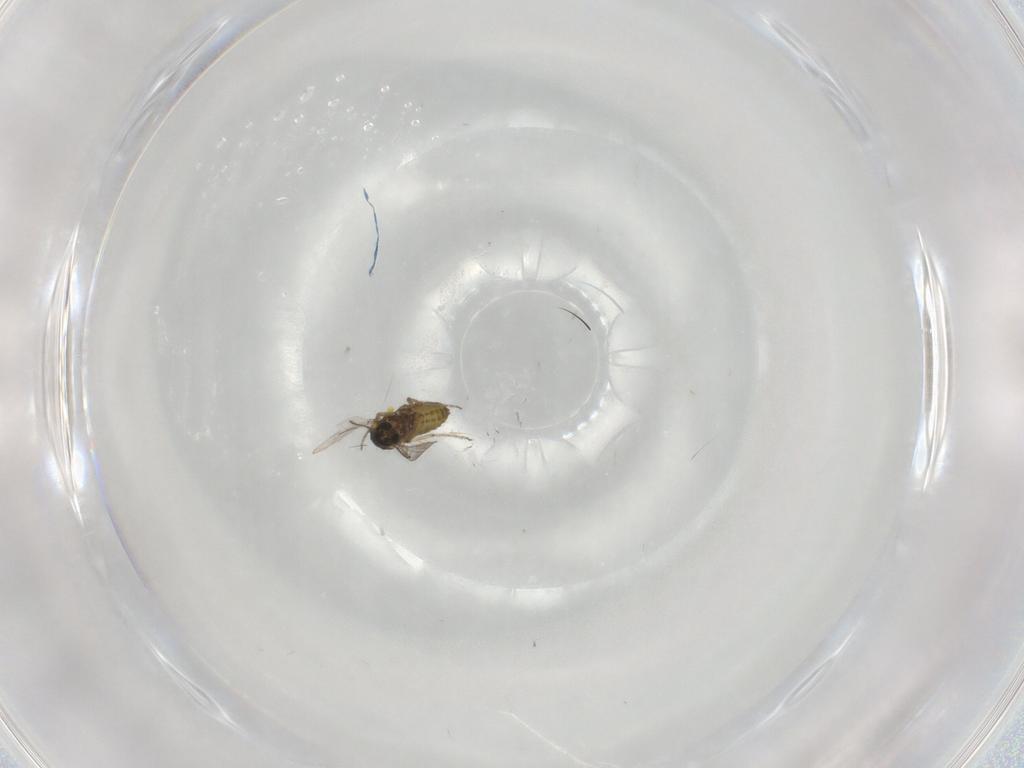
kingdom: Animalia
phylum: Arthropoda
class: Insecta
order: Diptera
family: Ceratopogonidae
